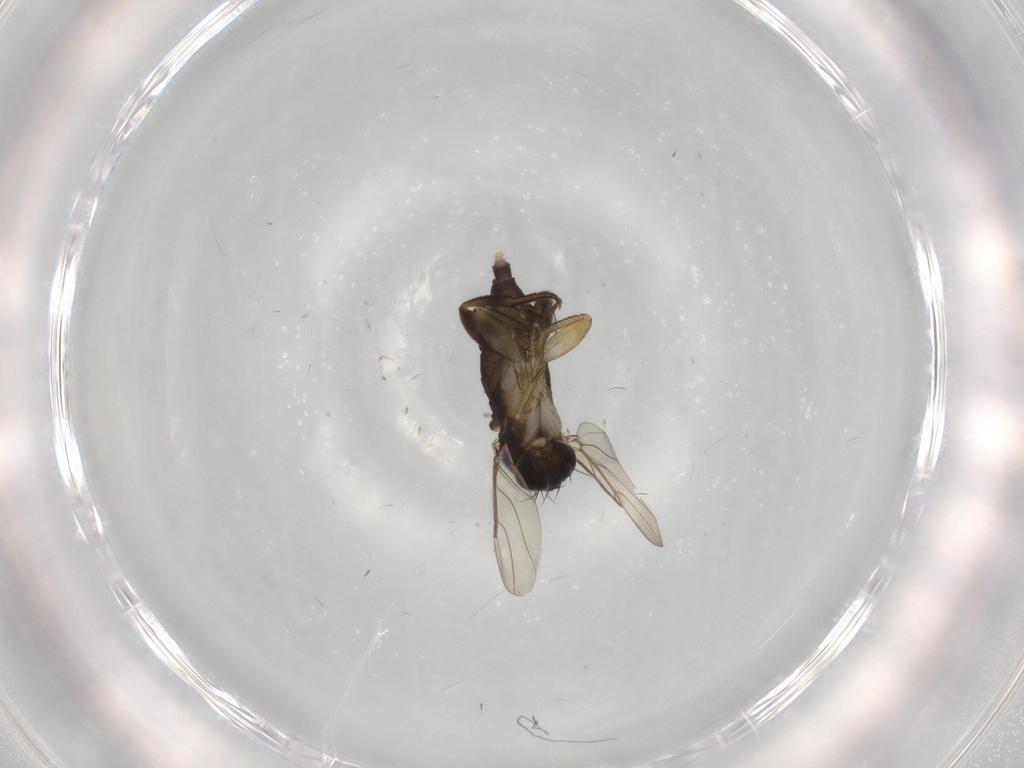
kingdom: Animalia
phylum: Arthropoda
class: Insecta
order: Diptera
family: Phoridae
